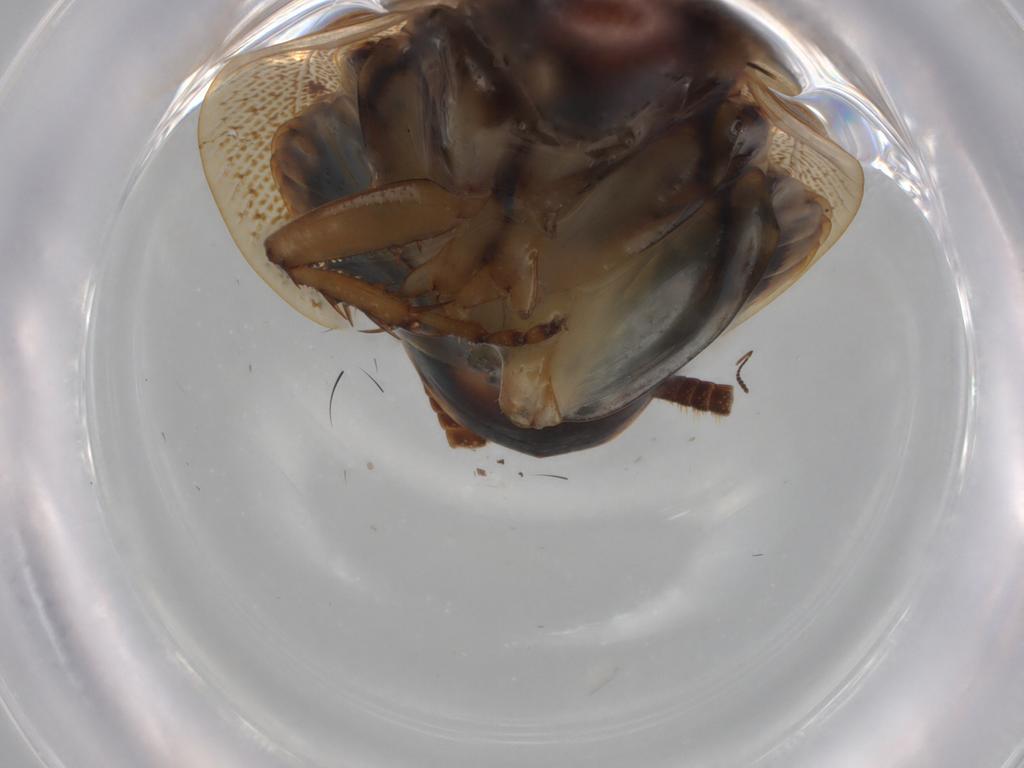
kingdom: Animalia
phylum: Arthropoda
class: Insecta
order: Blattodea
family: Ectobiidae
